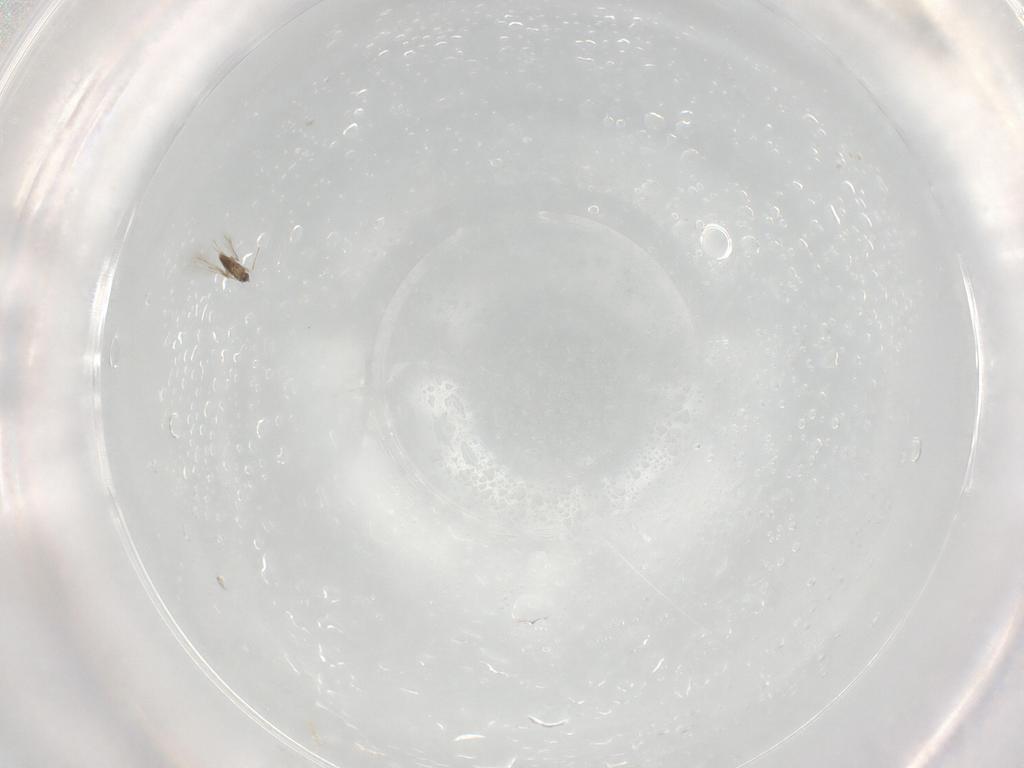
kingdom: Animalia
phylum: Arthropoda
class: Insecta
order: Hymenoptera
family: Mymaridae
